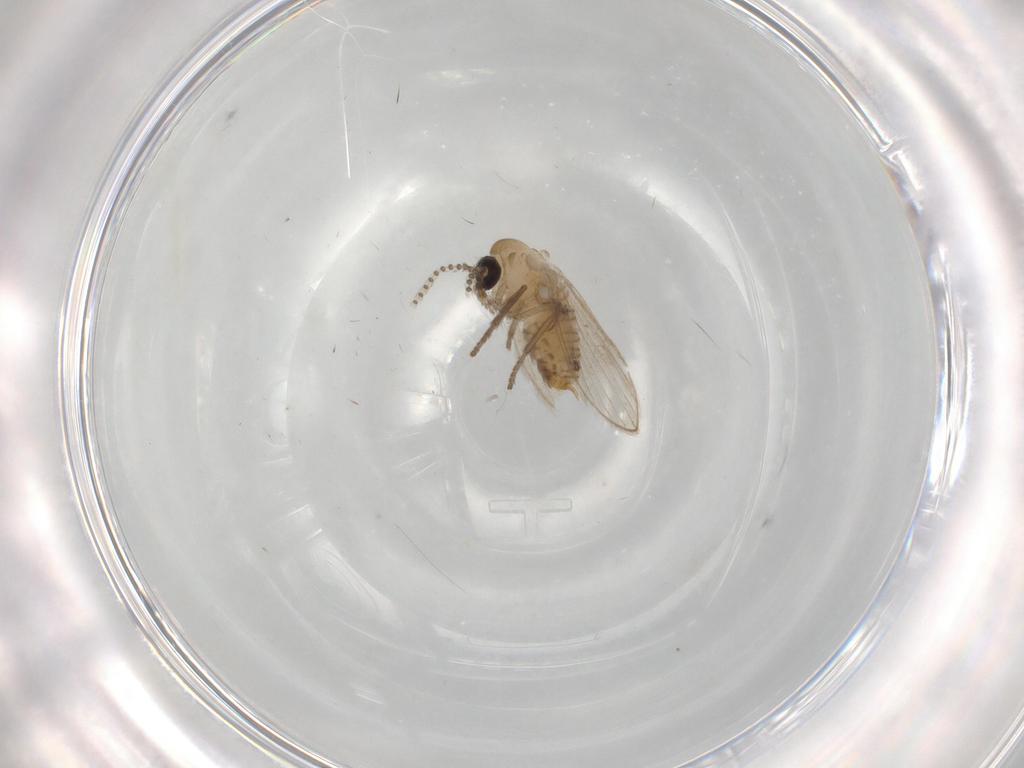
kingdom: Animalia
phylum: Arthropoda
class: Insecta
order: Diptera
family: Psychodidae
